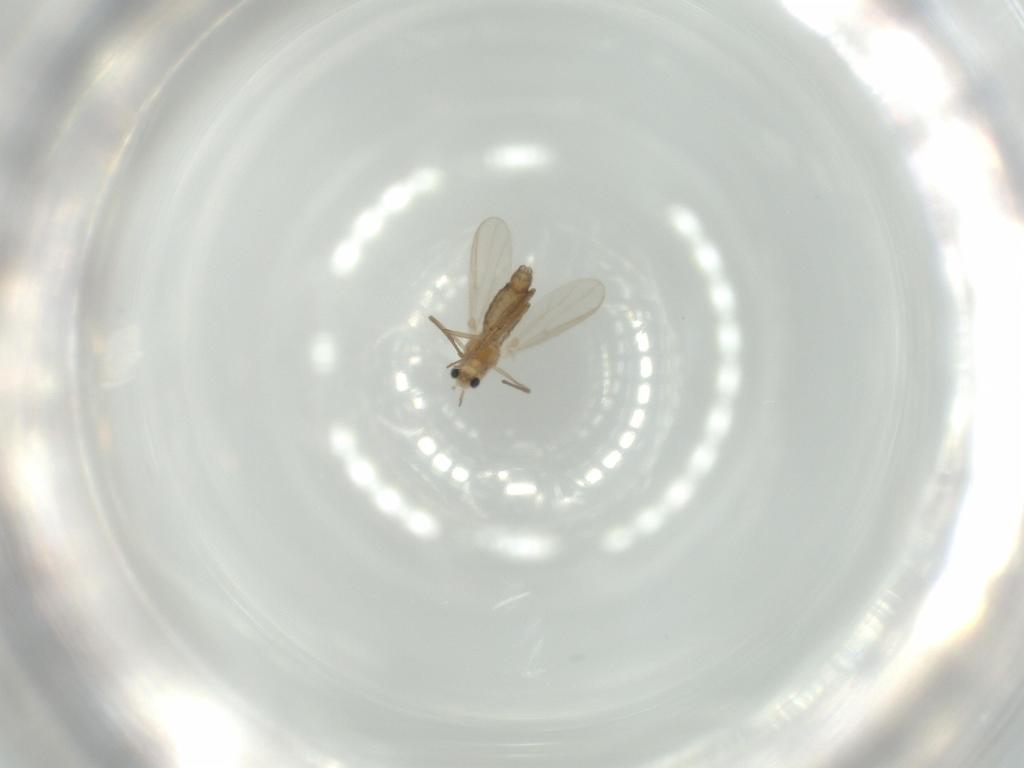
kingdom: Animalia
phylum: Arthropoda
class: Insecta
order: Diptera
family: Chironomidae
